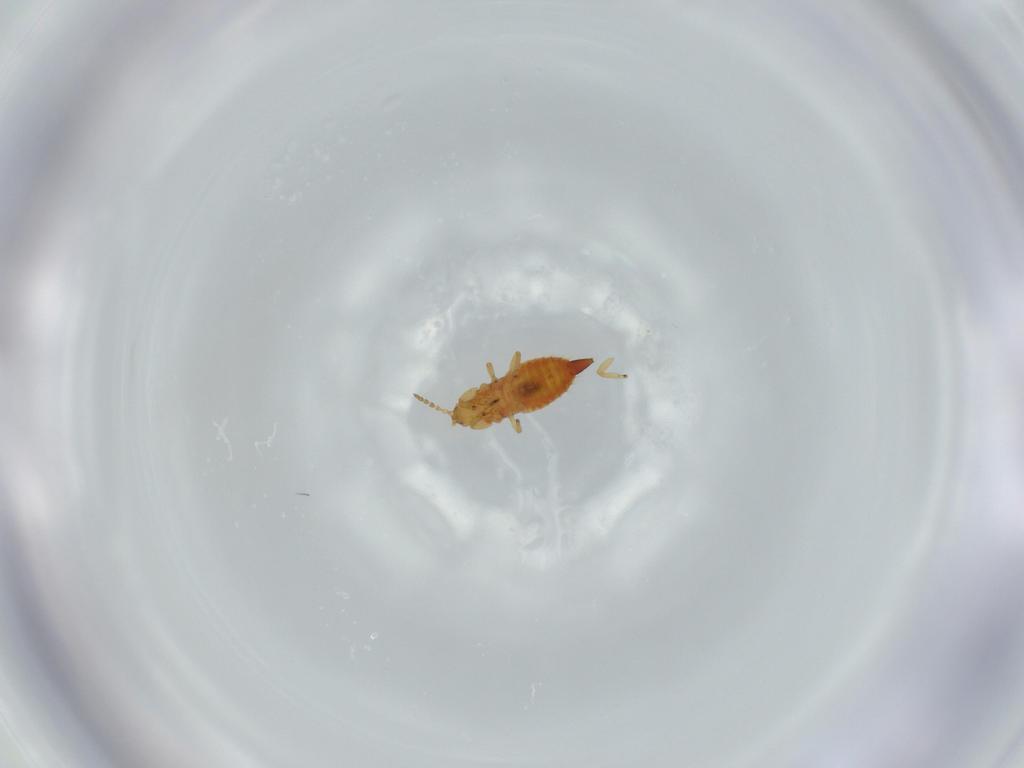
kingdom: Animalia
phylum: Arthropoda
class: Insecta
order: Thysanoptera
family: Phlaeothripidae
